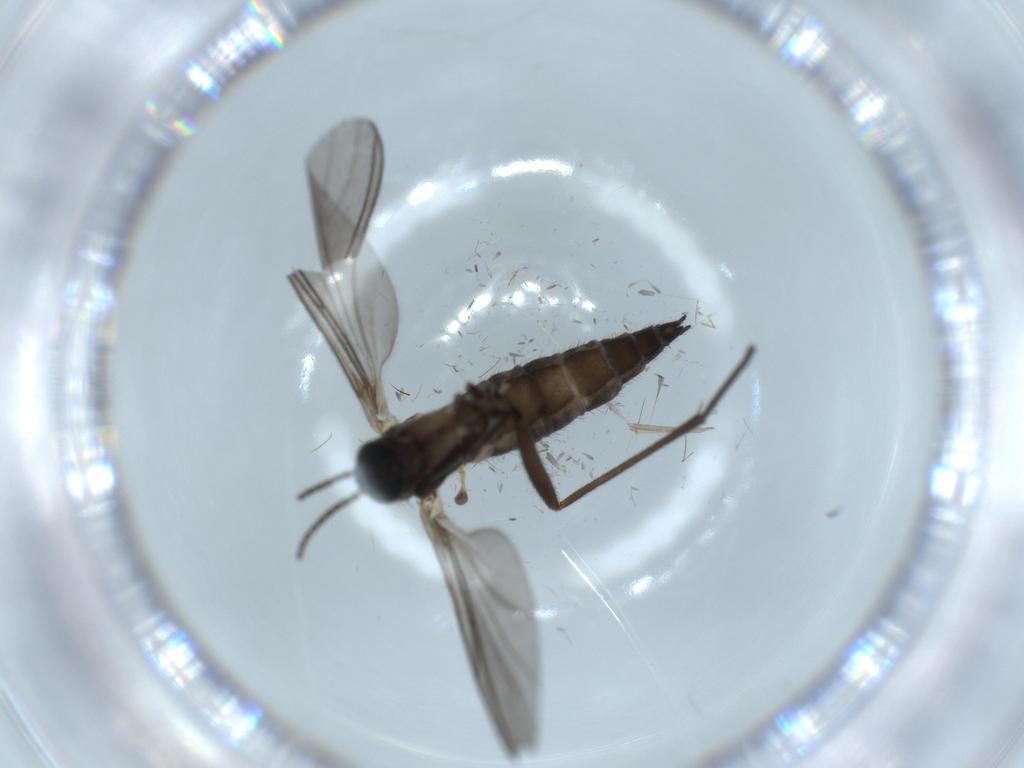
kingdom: Animalia
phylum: Arthropoda
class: Insecta
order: Diptera
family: Sciaridae
